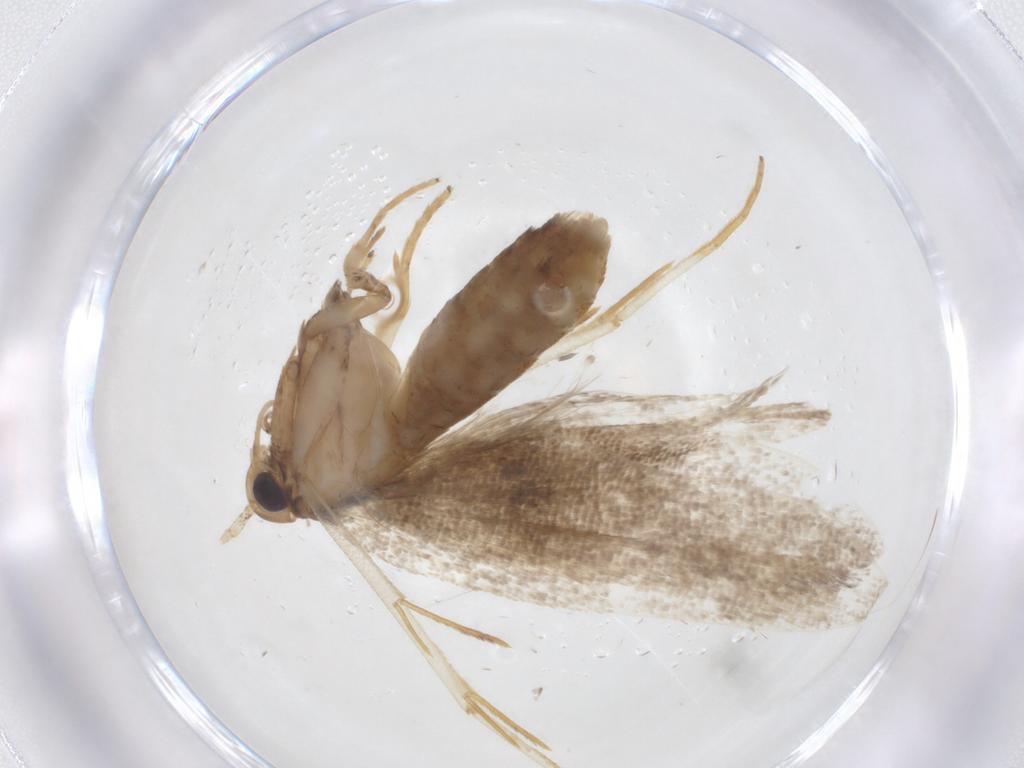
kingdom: Animalia
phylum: Arthropoda
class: Insecta
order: Lepidoptera
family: Lecithoceridae
